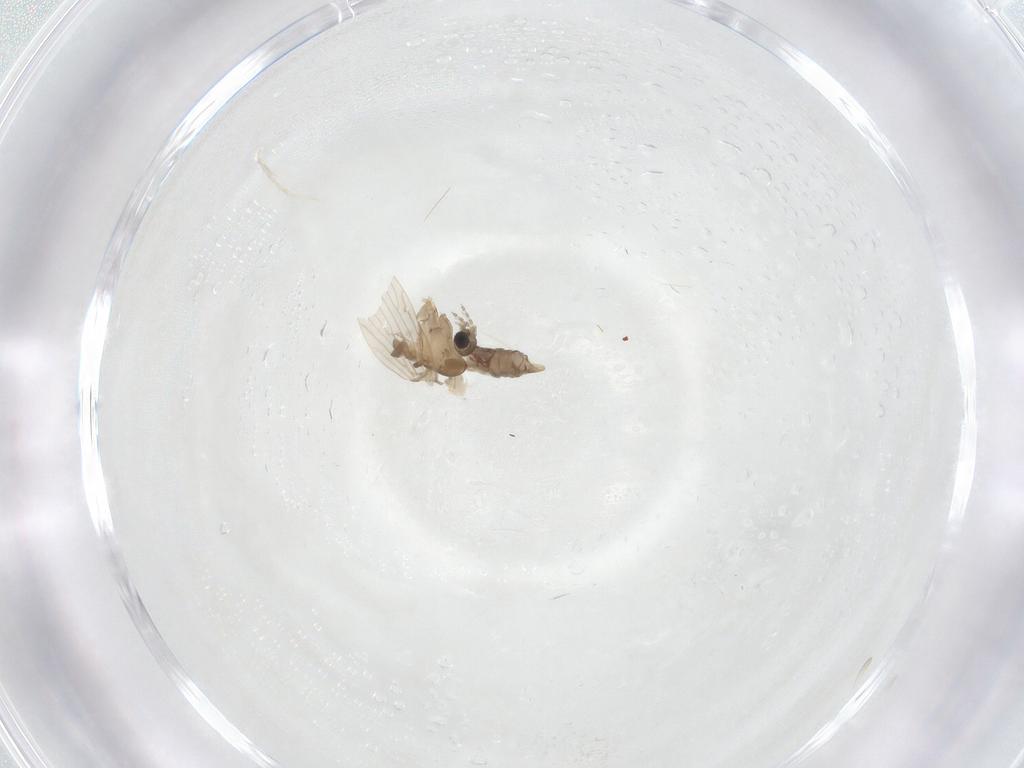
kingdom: Animalia
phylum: Arthropoda
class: Insecta
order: Diptera
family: Psychodidae
